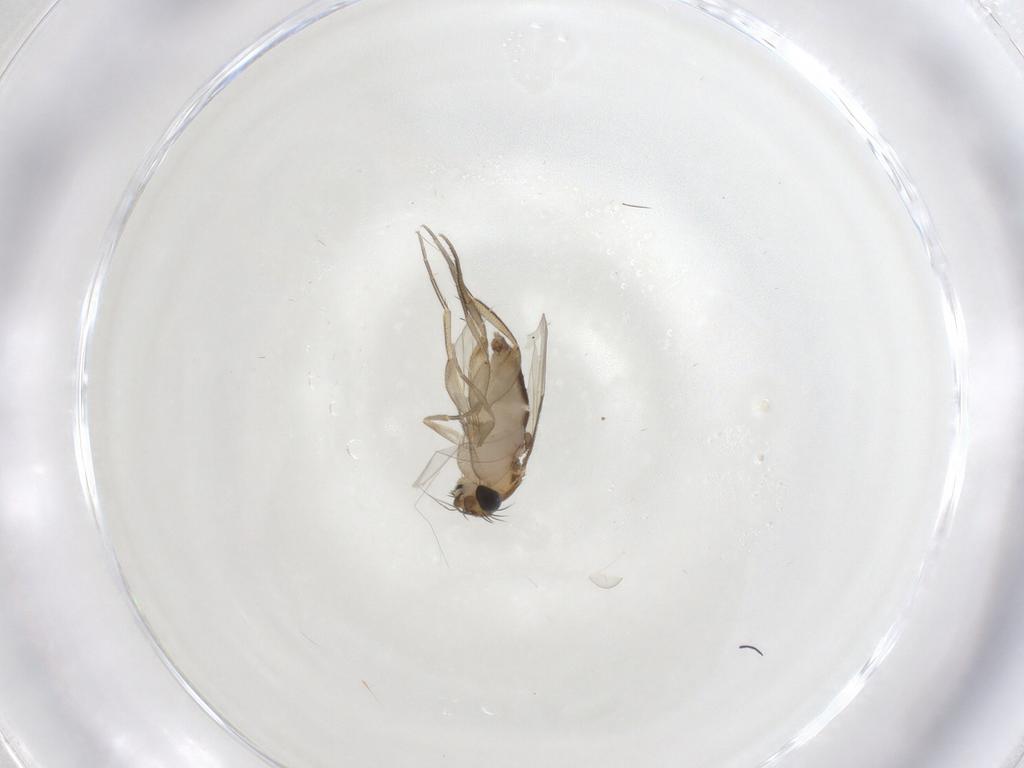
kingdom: Animalia
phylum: Arthropoda
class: Insecta
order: Diptera
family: Phoridae
